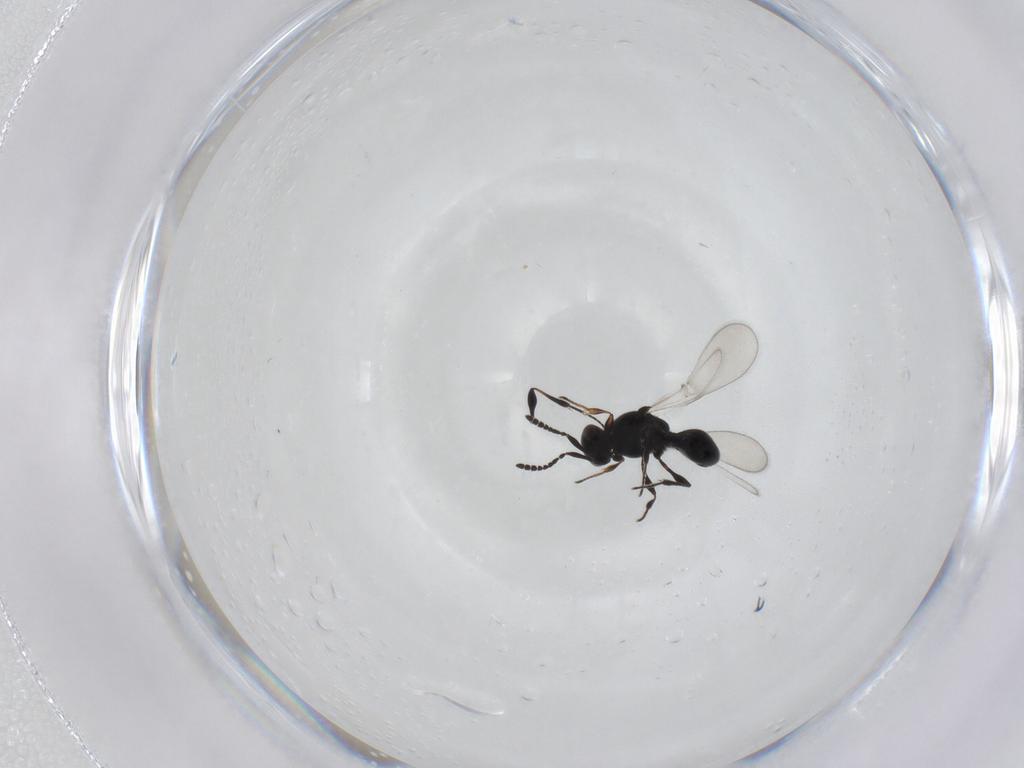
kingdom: Animalia
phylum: Arthropoda
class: Insecta
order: Hymenoptera
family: Platygastridae
